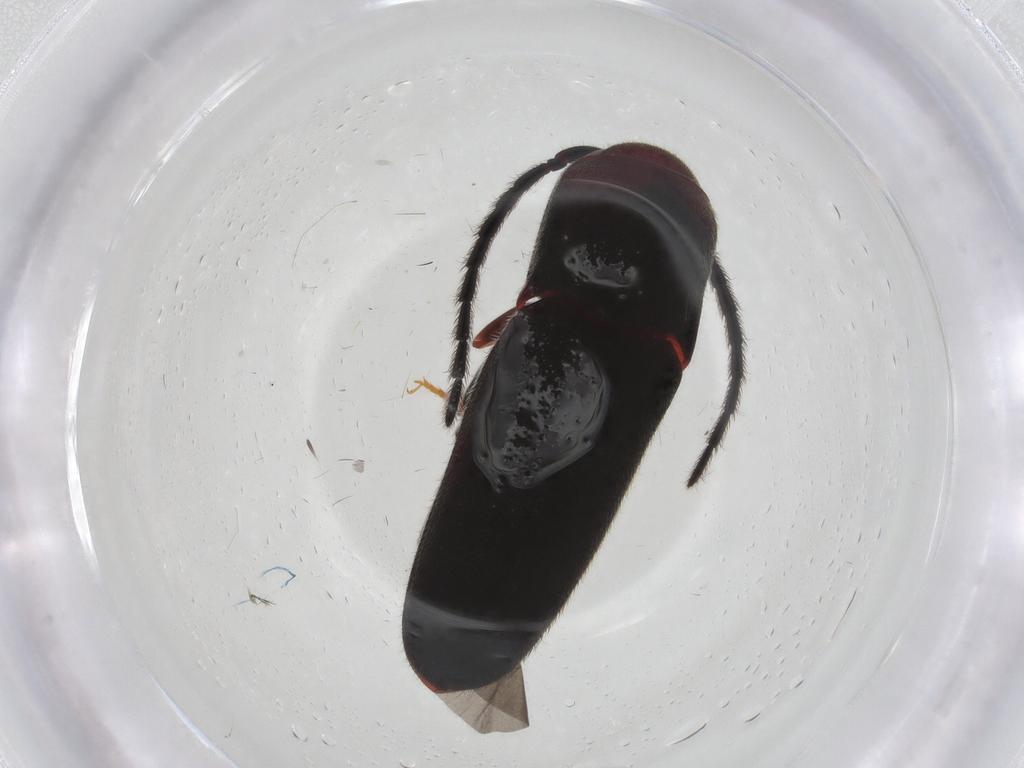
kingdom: Animalia
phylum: Arthropoda
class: Insecta
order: Coleoptera
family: Eucnemidae
